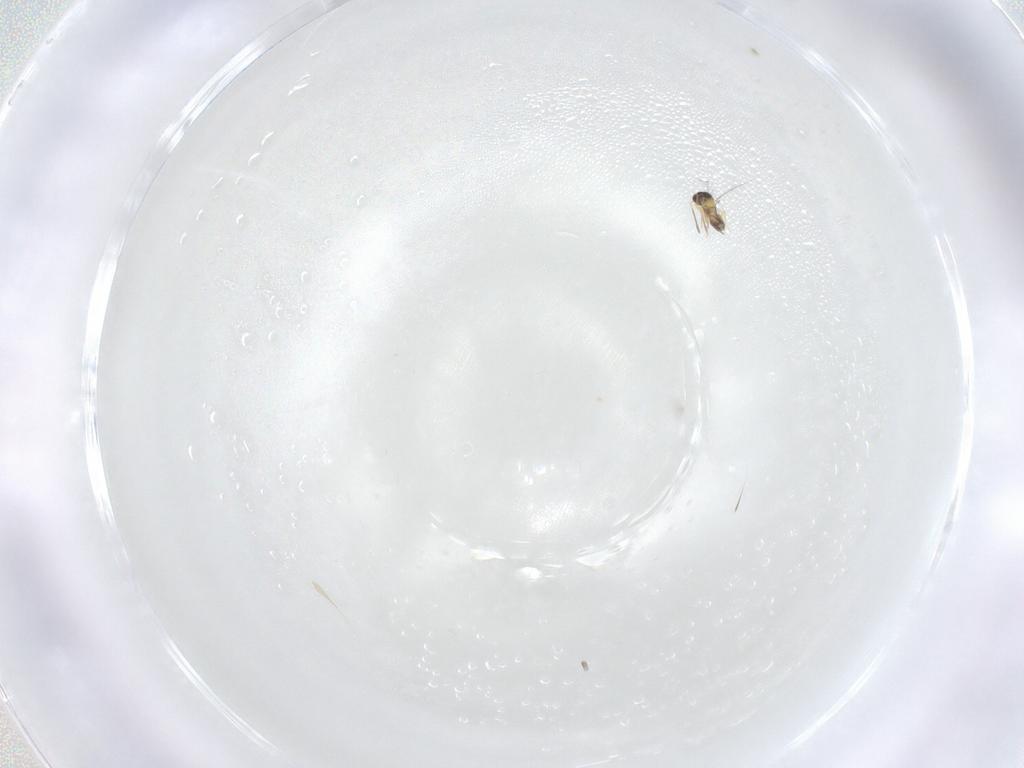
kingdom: Animalia
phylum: Arthropoda
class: Insecta
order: Hymenoptera
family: Mymaridae
